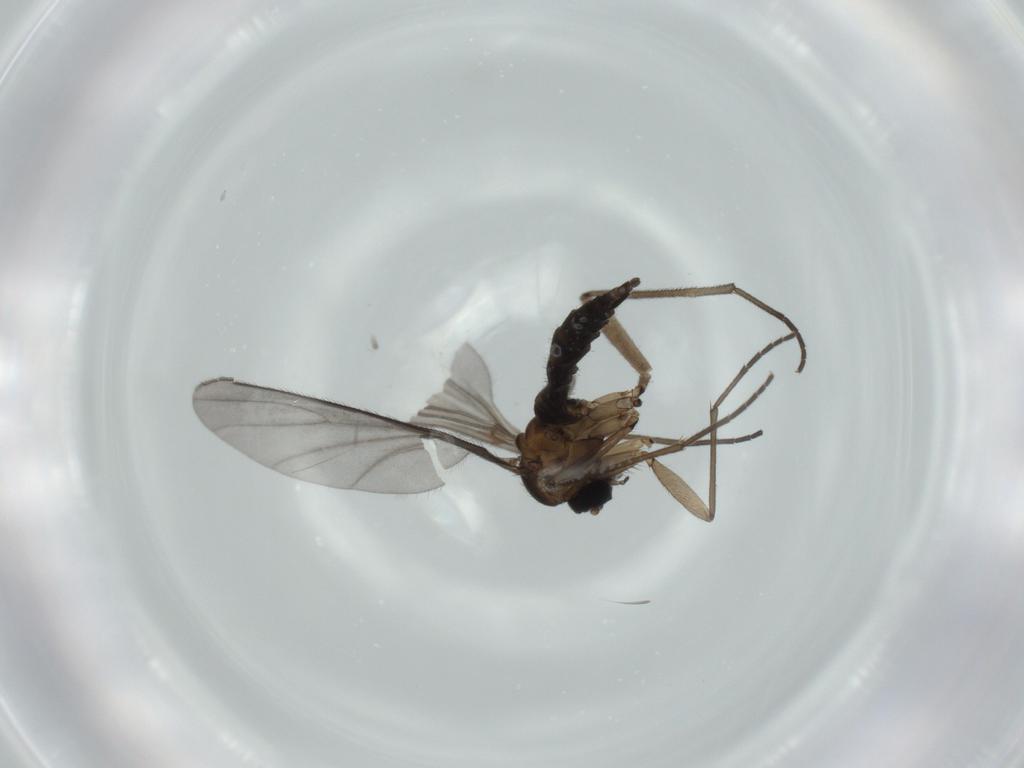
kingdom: Animalia
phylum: Arthropoda
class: Insecta
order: Diptera
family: Sciaridae
